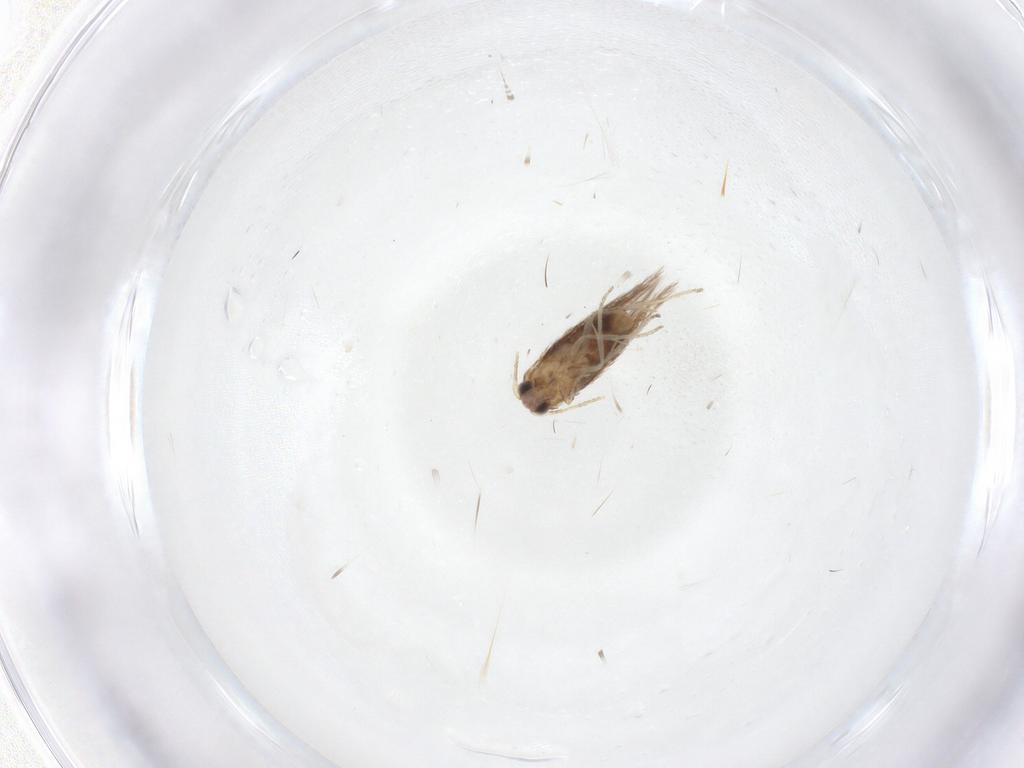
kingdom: Animalia
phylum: Arthropoda
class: Insecta
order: Lepidoptera
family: Nepticulidae
